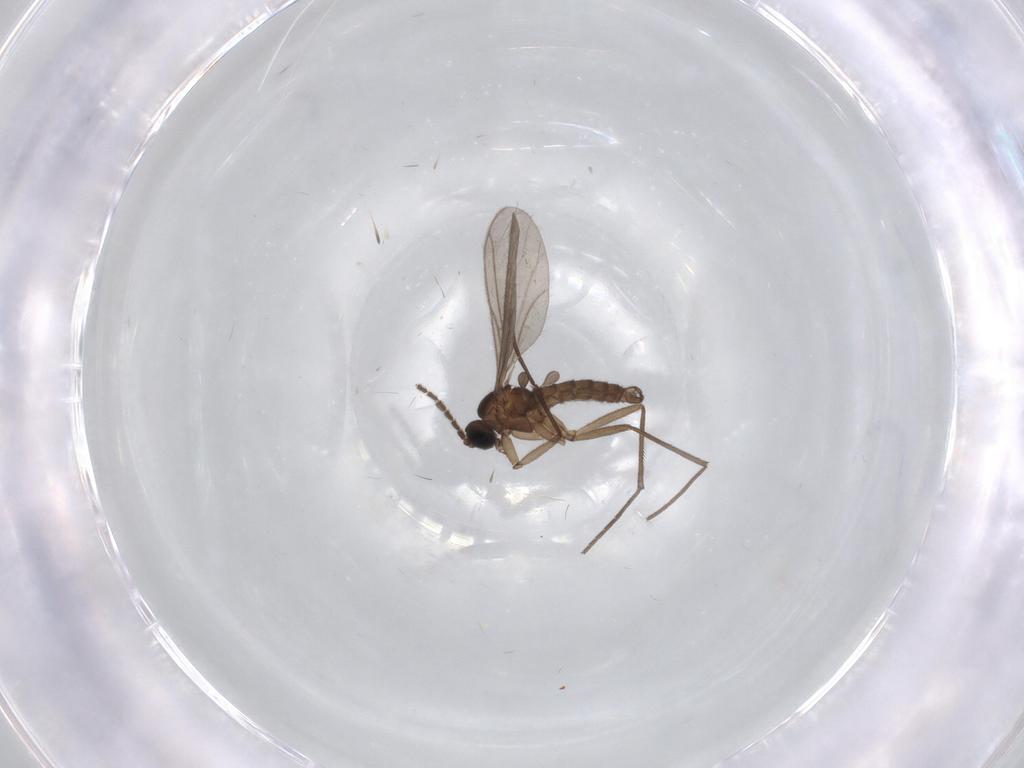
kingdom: Animalia
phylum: Arthropoda
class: Insecta
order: Diptera
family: Sciaridae
